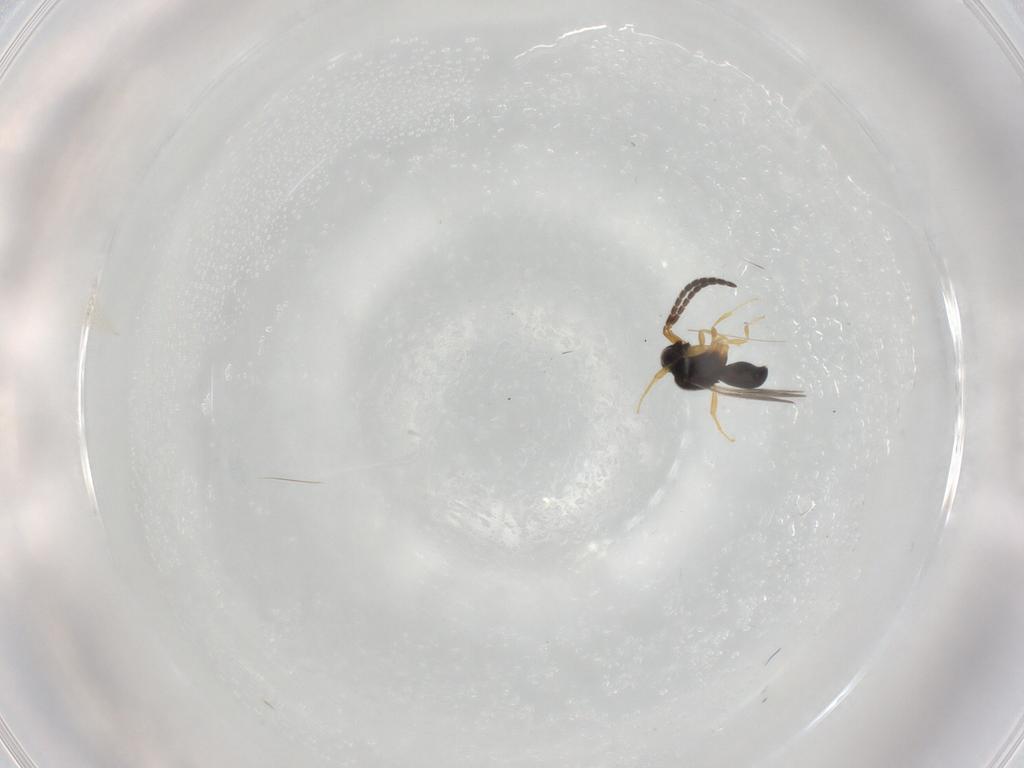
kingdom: Animalia
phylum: Arthropoda
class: Insecta
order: Hymenoptera
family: Ceraphronidae
